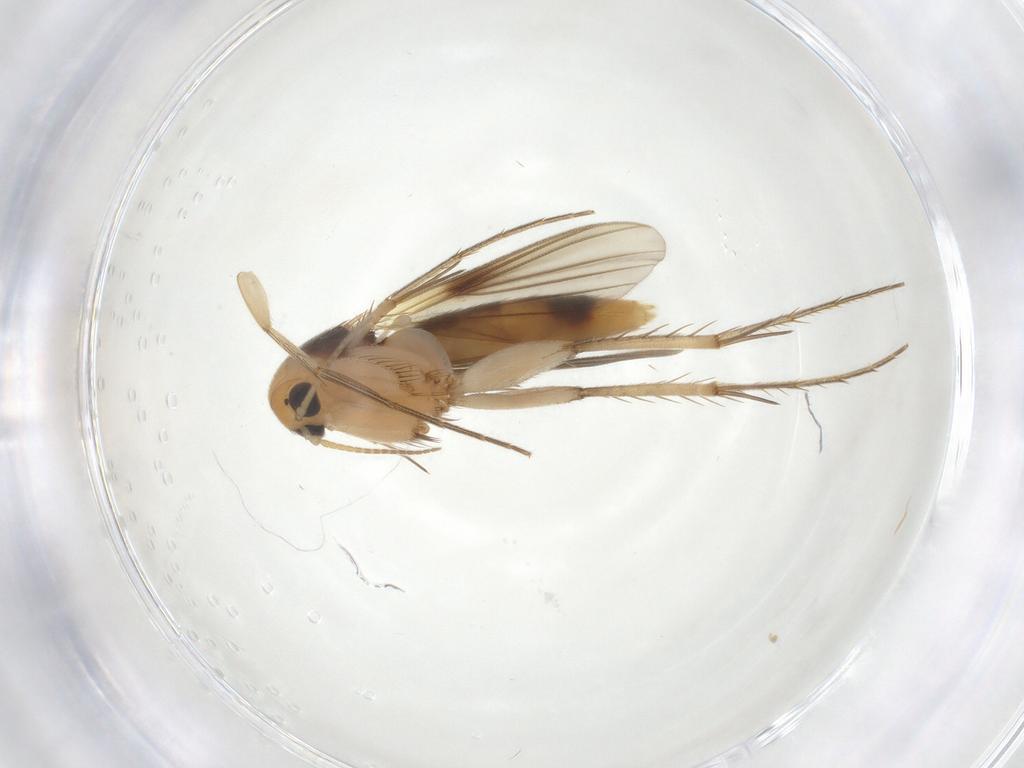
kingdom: Animalia
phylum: Arthropoda
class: Insecta
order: Diptera
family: Mycetophilidae
